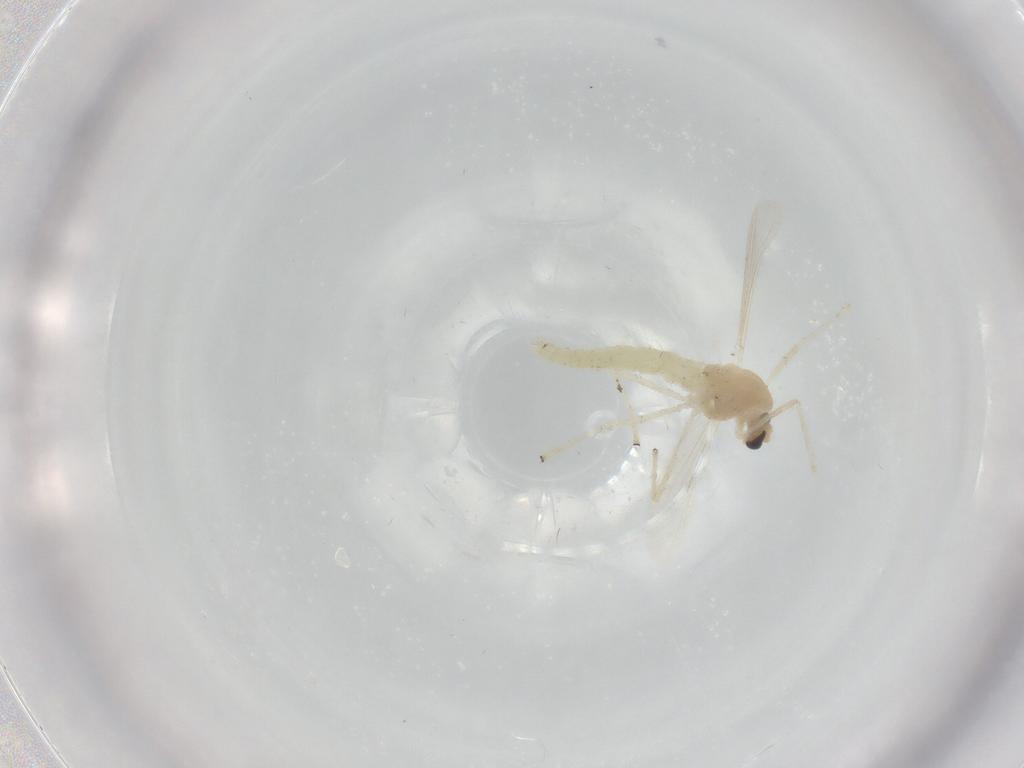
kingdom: Animalia
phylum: Arthropoda
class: Insecta
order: Diptera
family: Chironomidae
